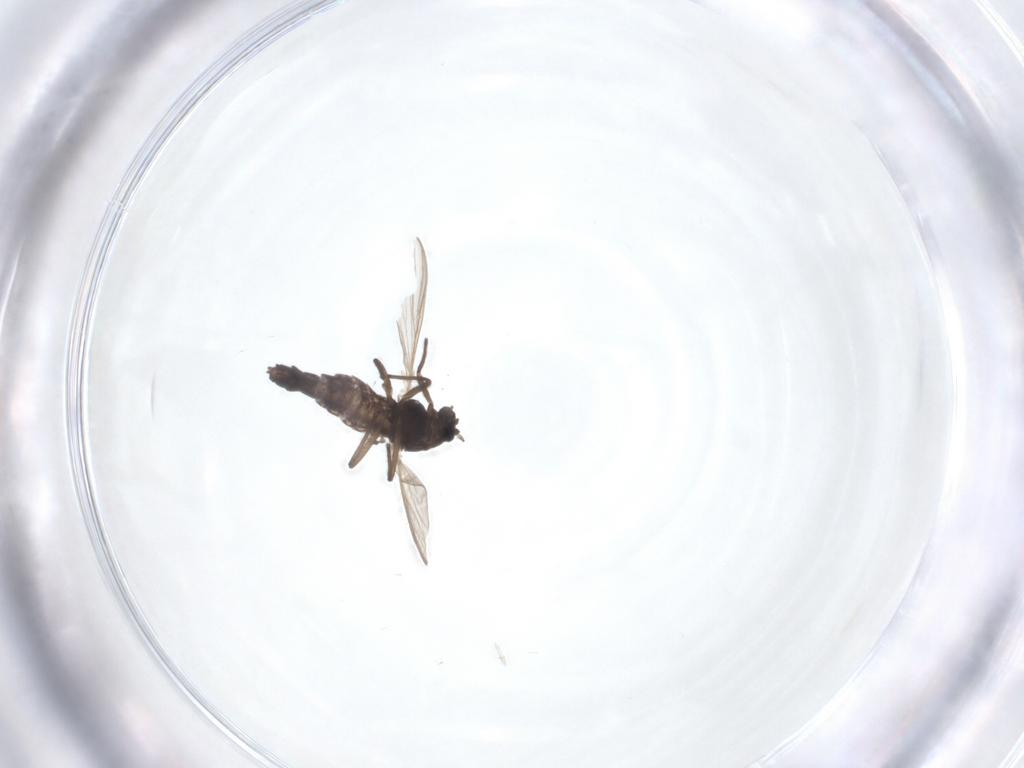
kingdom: Animalia
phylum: Arthropoda
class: Insecta
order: Diptera
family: Chironomidae
